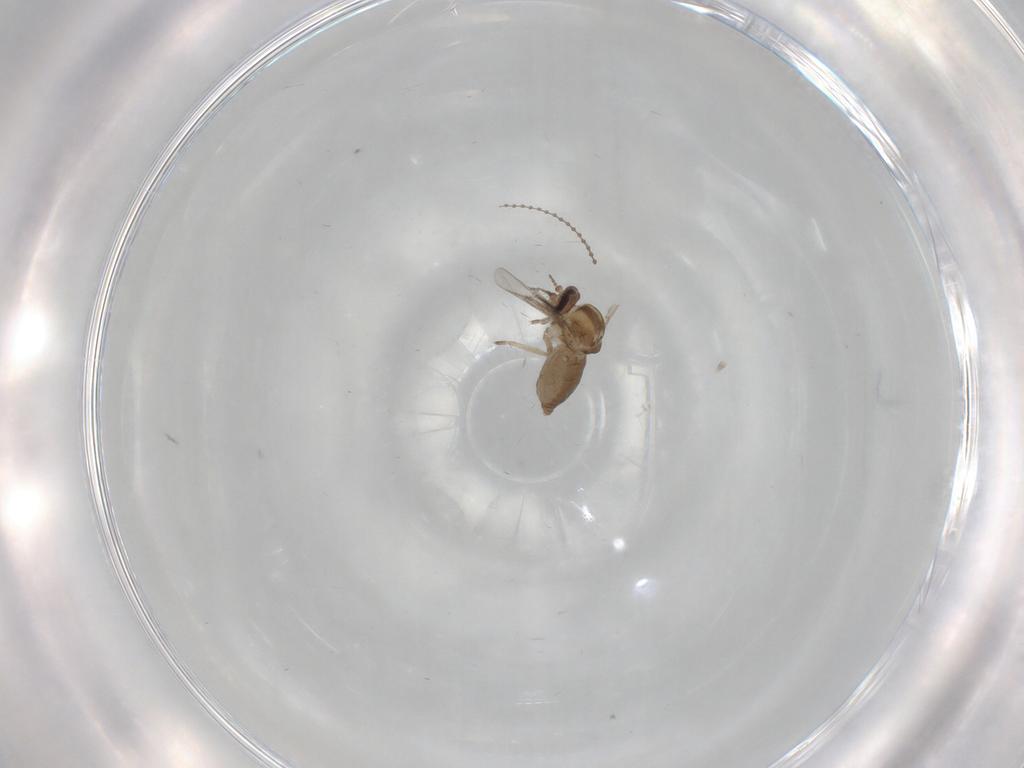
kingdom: Animalia
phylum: Arthropoda
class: Insecta
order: Diptera
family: Ceratopogonidae
